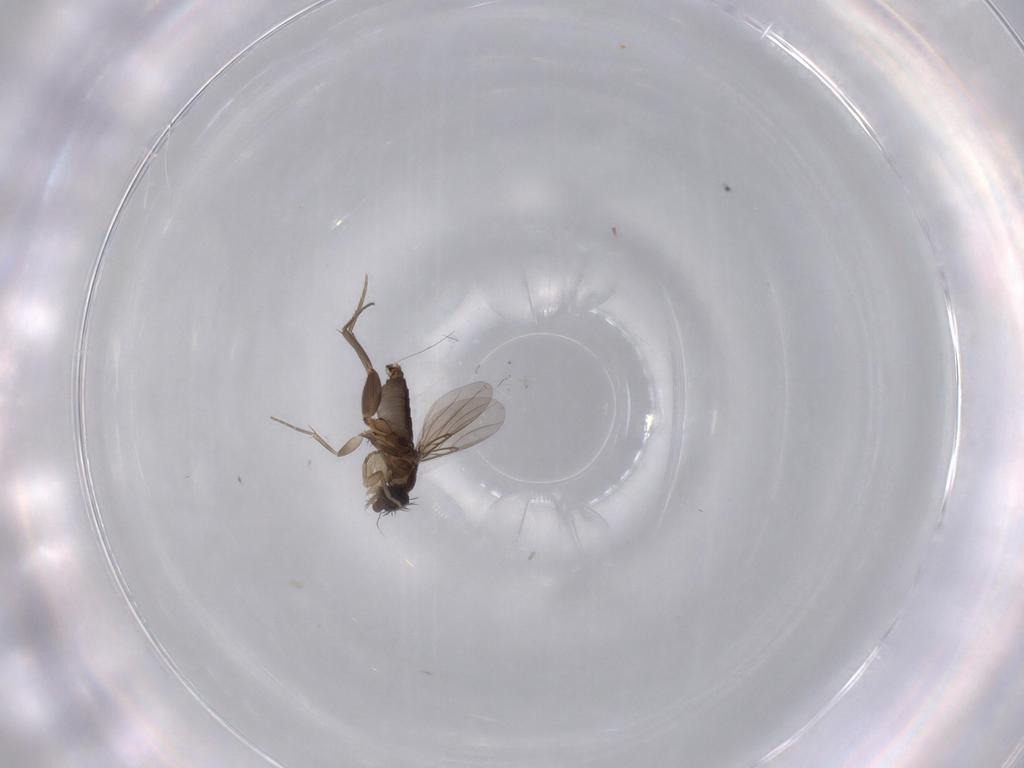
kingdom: Animalia
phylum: Arthropoda
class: Insecta
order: Diptera
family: Phoridae
